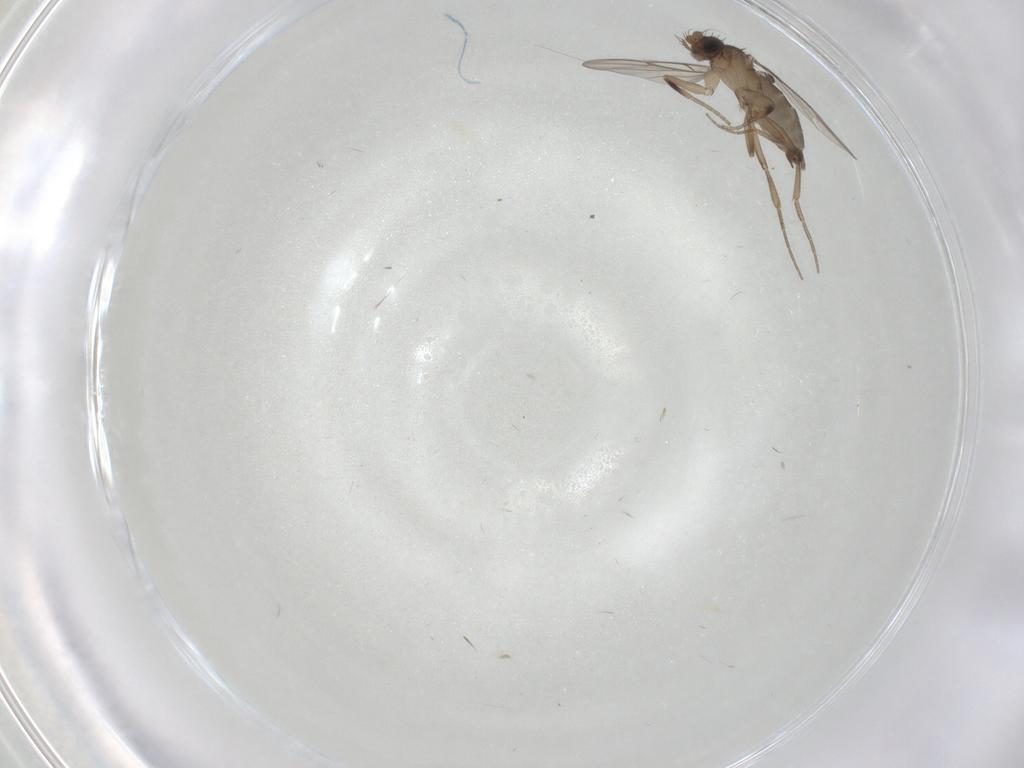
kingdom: Animalia
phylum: Arthropoda
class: Insecta
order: Diptera
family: Phoridae
